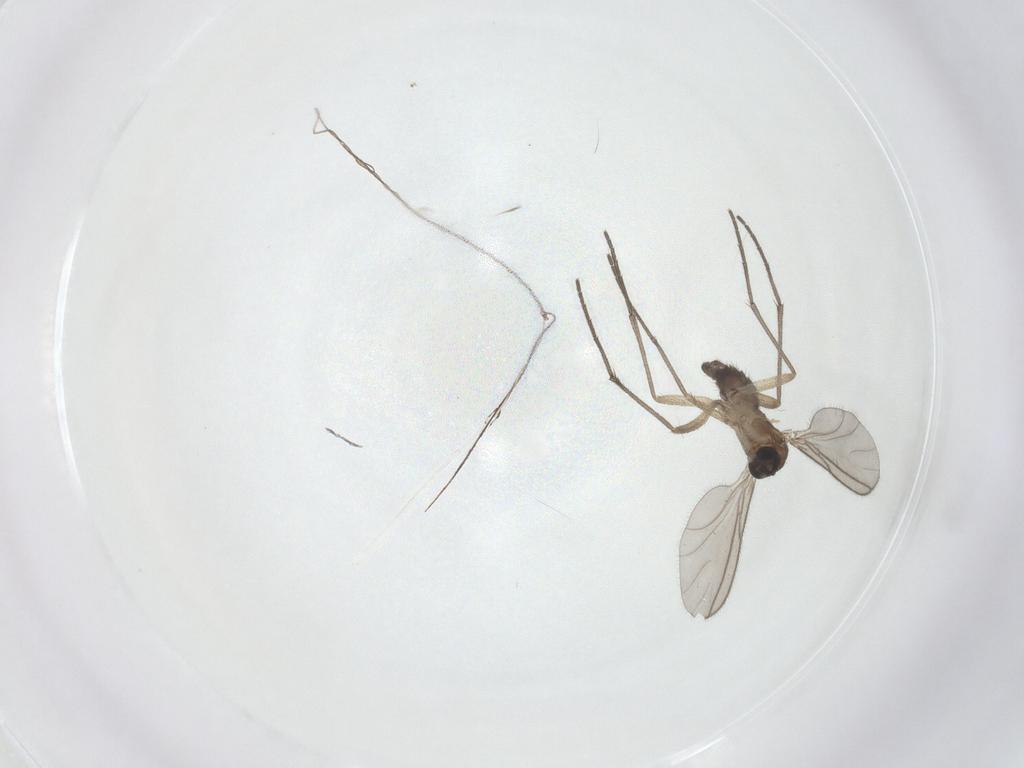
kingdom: Animalia
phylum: Arthropoda
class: Insecta
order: Diptera
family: Sciaridae
